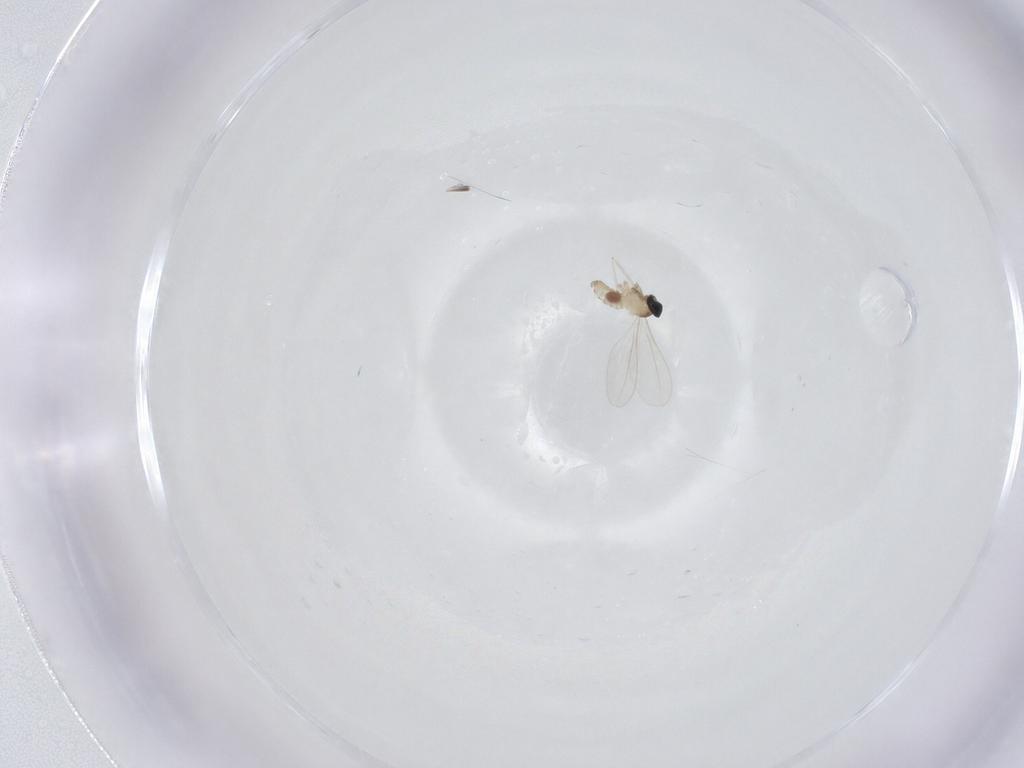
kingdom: Animalia
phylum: Arthropoda
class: Insecta
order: Diptera
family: Cecidomyiidae
